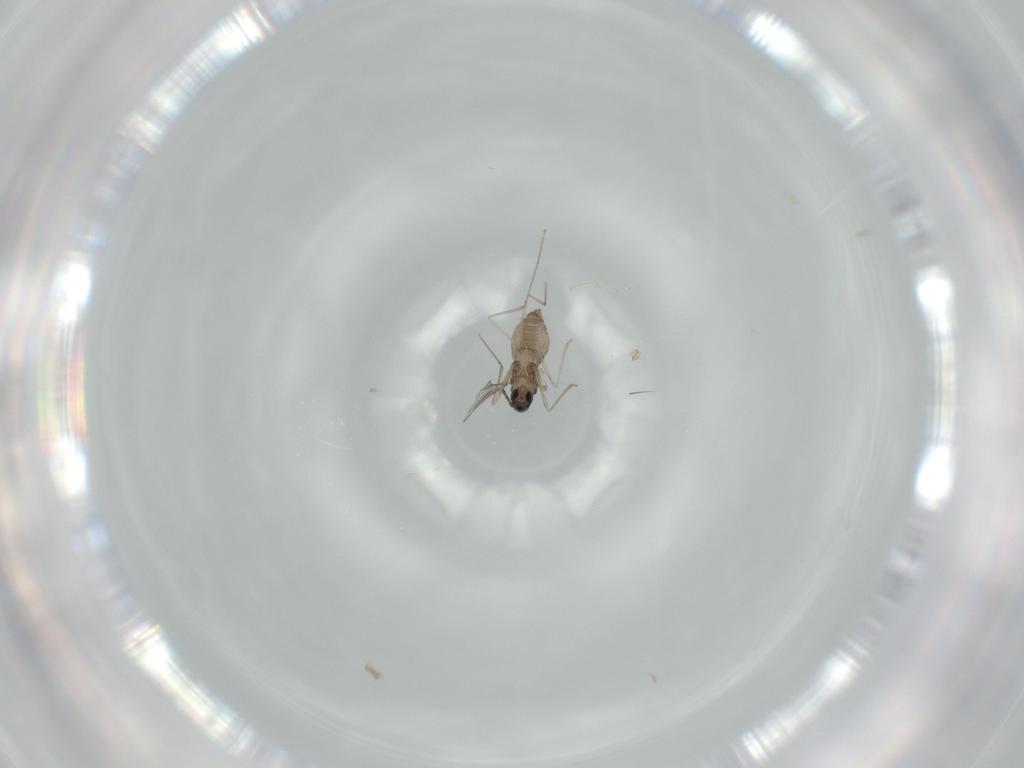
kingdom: Animalia
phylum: Arthropoda
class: Insecta
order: Diptera
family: Cecidomyiidae
